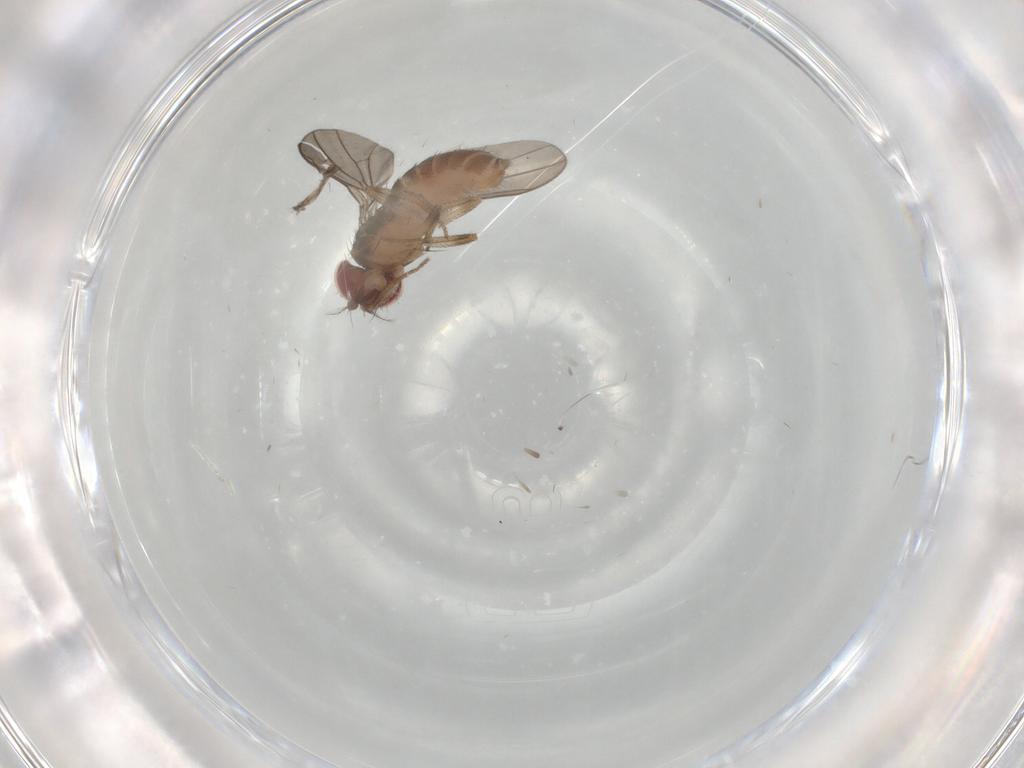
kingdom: Animalia
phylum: Arthropoda
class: Insecta
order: Diptera
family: Drosophilidae
